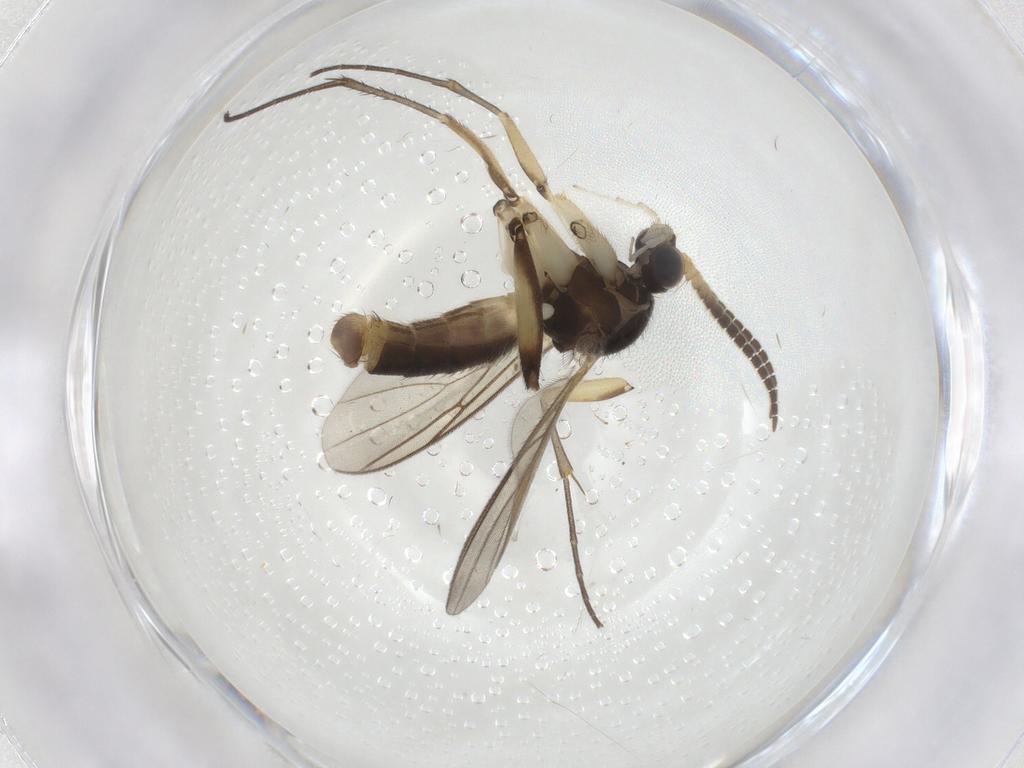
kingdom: Animalia
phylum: Arthropoda
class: Insecta
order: Diptera
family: Mycetophilidae
